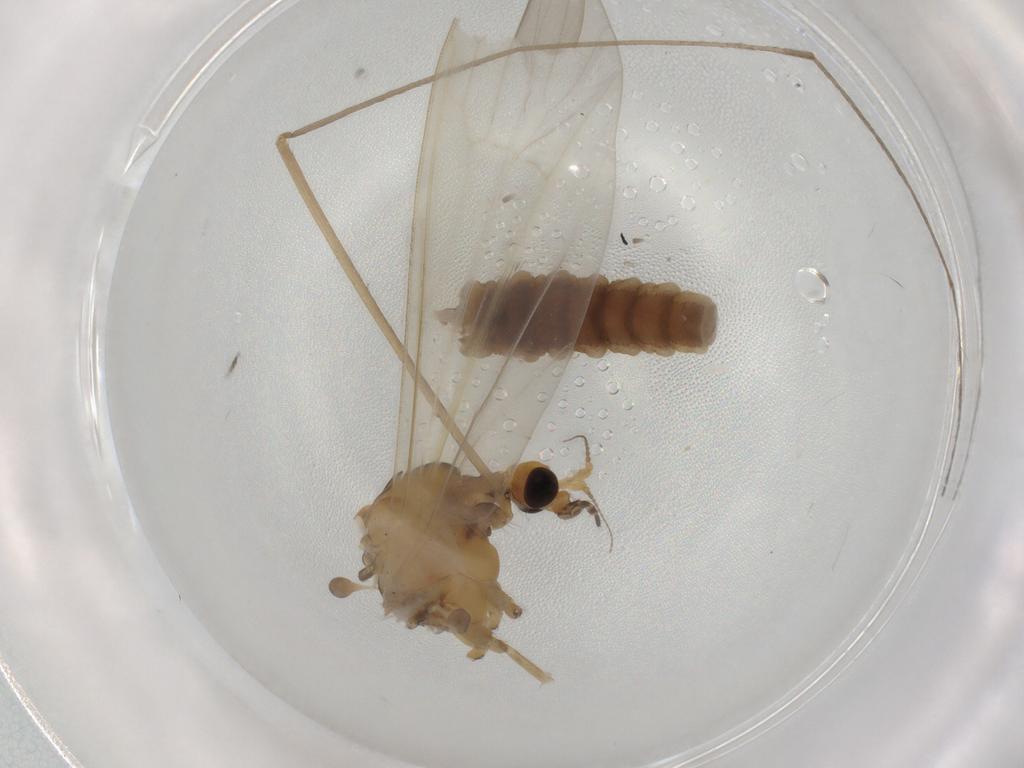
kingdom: Animalia
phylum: Arthropoda
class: Insecta
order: Diptera
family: Limoniidae
